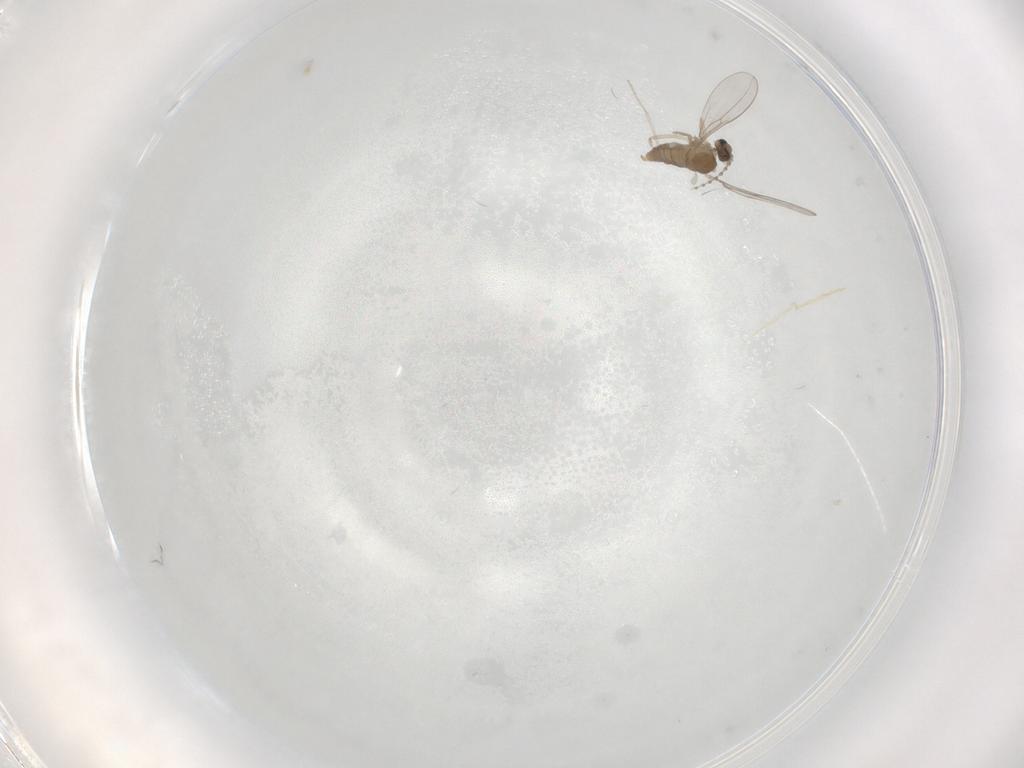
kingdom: Animalia
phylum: Arthropoda
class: Insecta
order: Diptera
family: Cecidomyiidae
